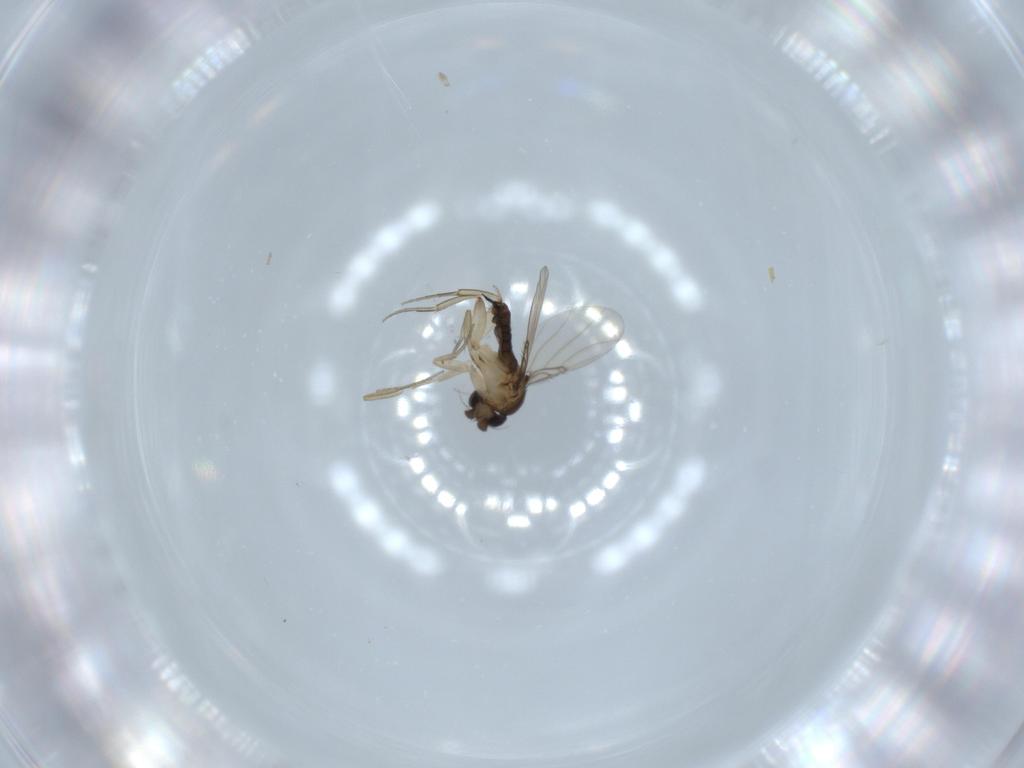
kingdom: Animalia
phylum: Arthropoda
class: Insecta
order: Diptera
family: Phoridae
